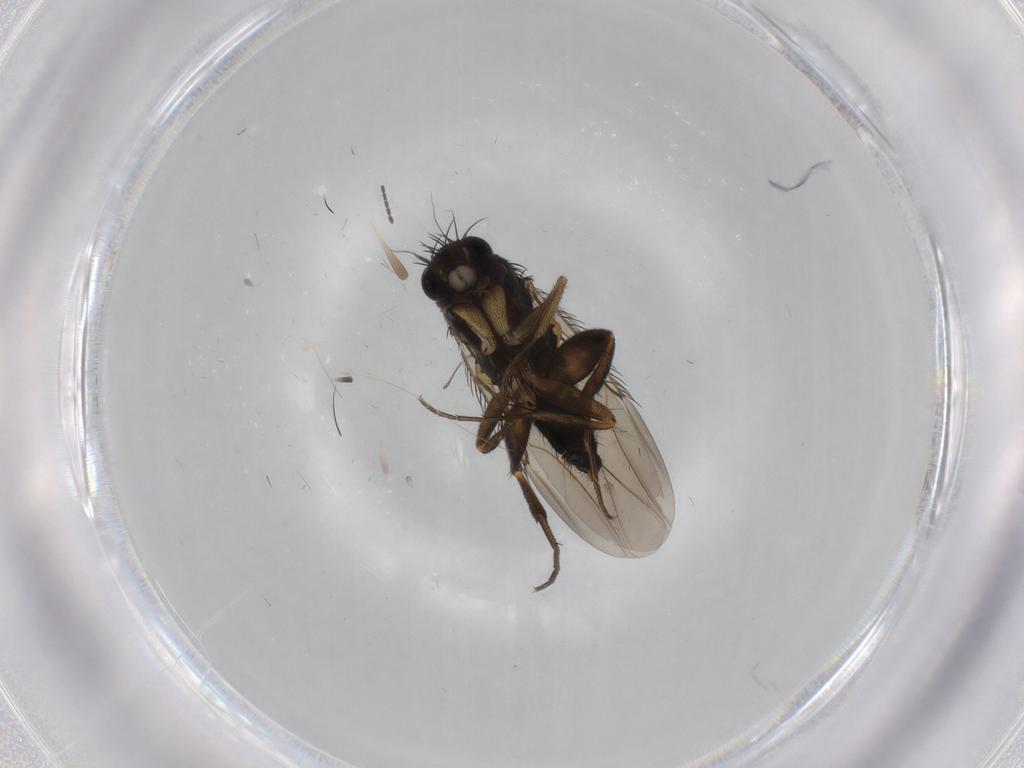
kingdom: Animalia
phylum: Arthropoda
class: Insecta
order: Diptera
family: Phoridae
